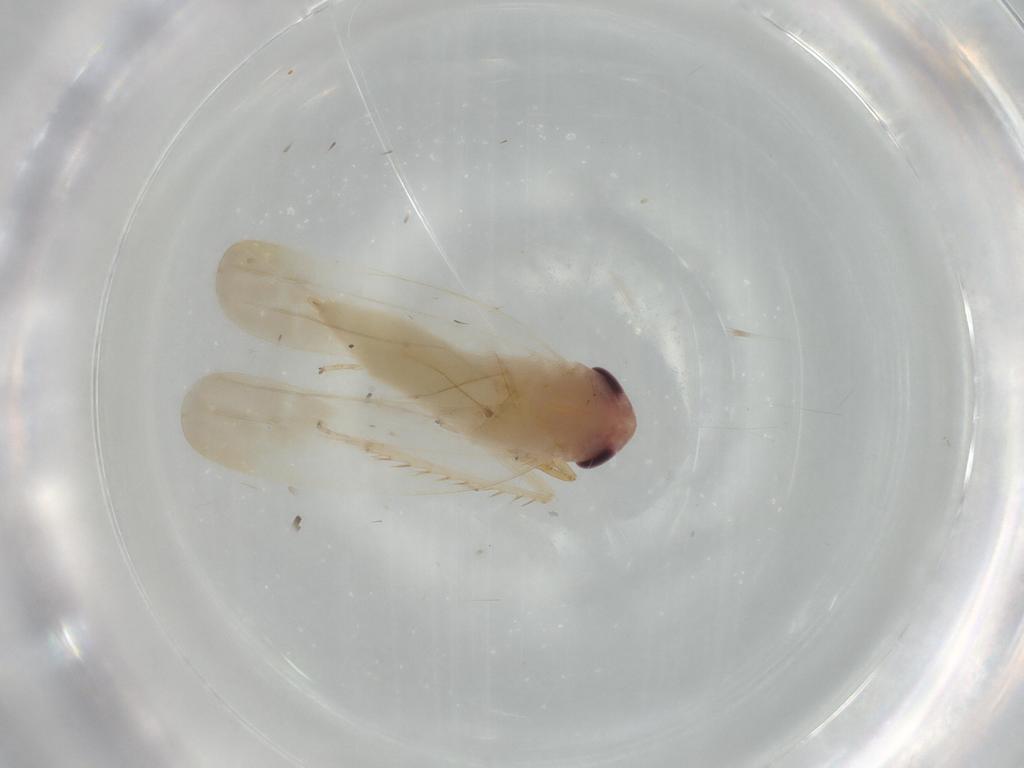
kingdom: Animalia
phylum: Arthropoda
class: Insecta
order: Hemiptera
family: Cicadellidae
